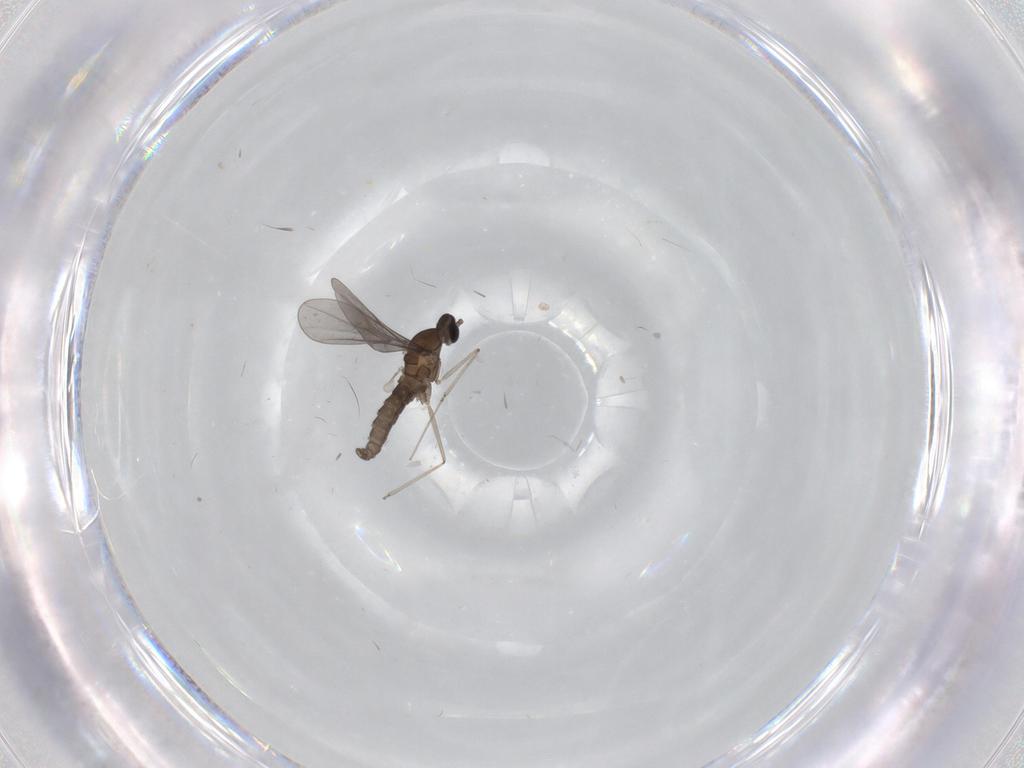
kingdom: Animalia
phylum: Arthropoda
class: Insecta
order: Diptera
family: Cecidomyiidae
